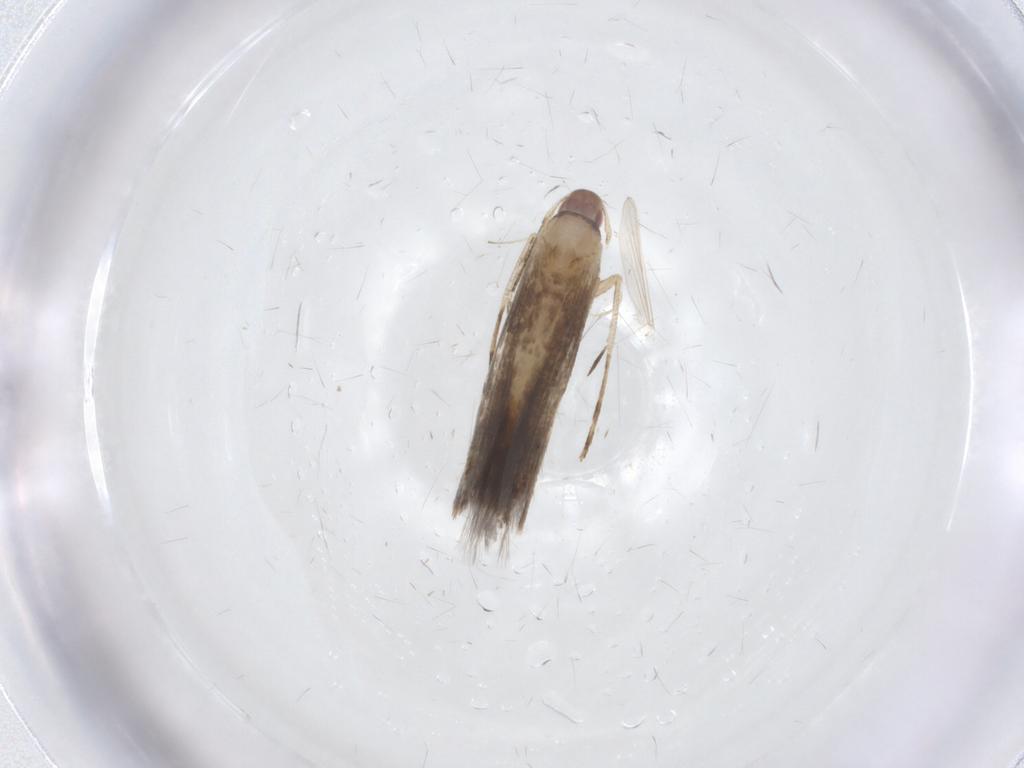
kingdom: Animalia
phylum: Arthropoda
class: Insecta
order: Lepidoptera
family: Cosmopterigidae
